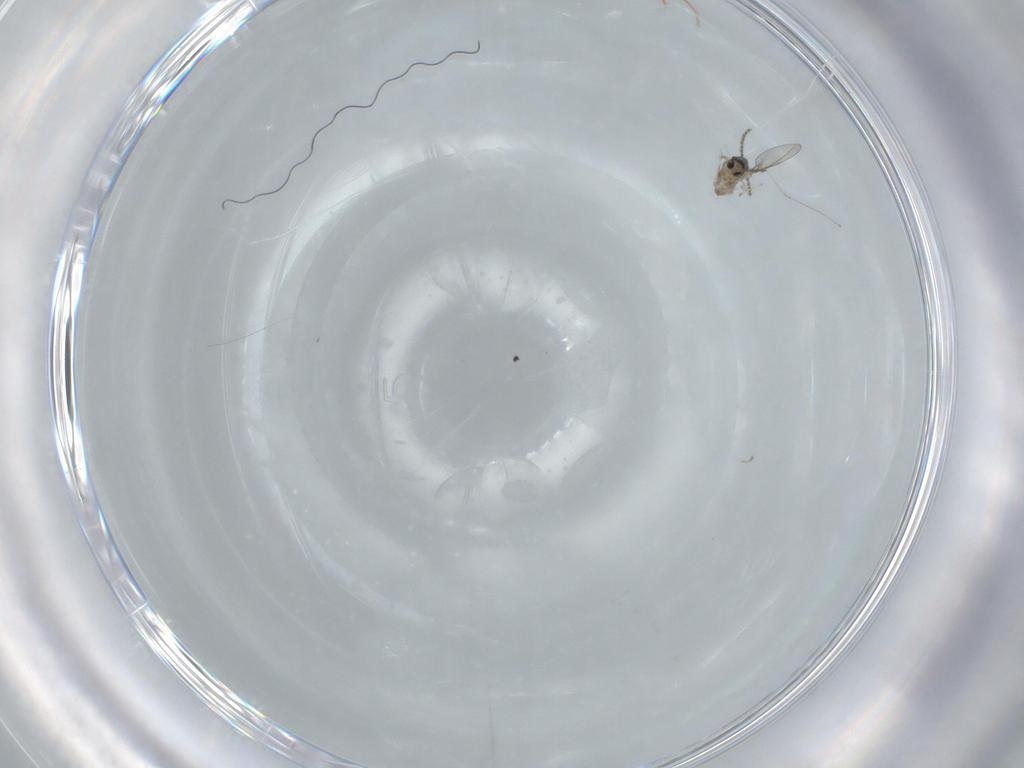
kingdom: Animalia
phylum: Arthropoda
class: Insecta
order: Diptera
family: Cecidomyiidae
